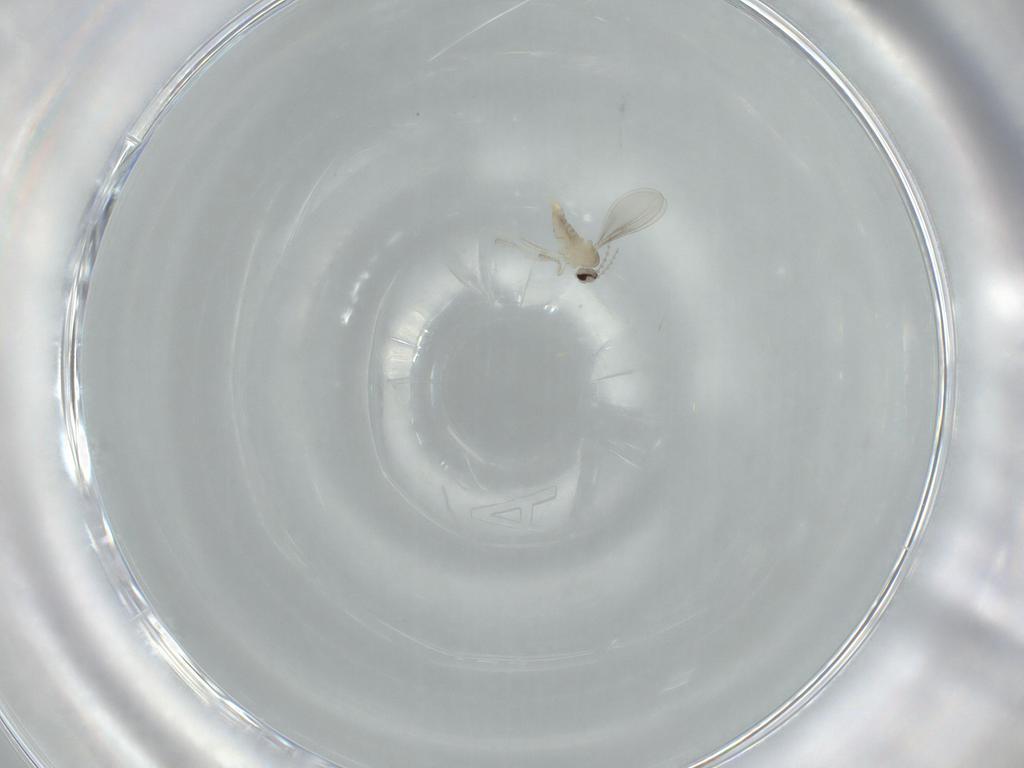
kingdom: Animalia
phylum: Arthropoda
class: Insecta
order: Diptera
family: Cecidomyiidae
